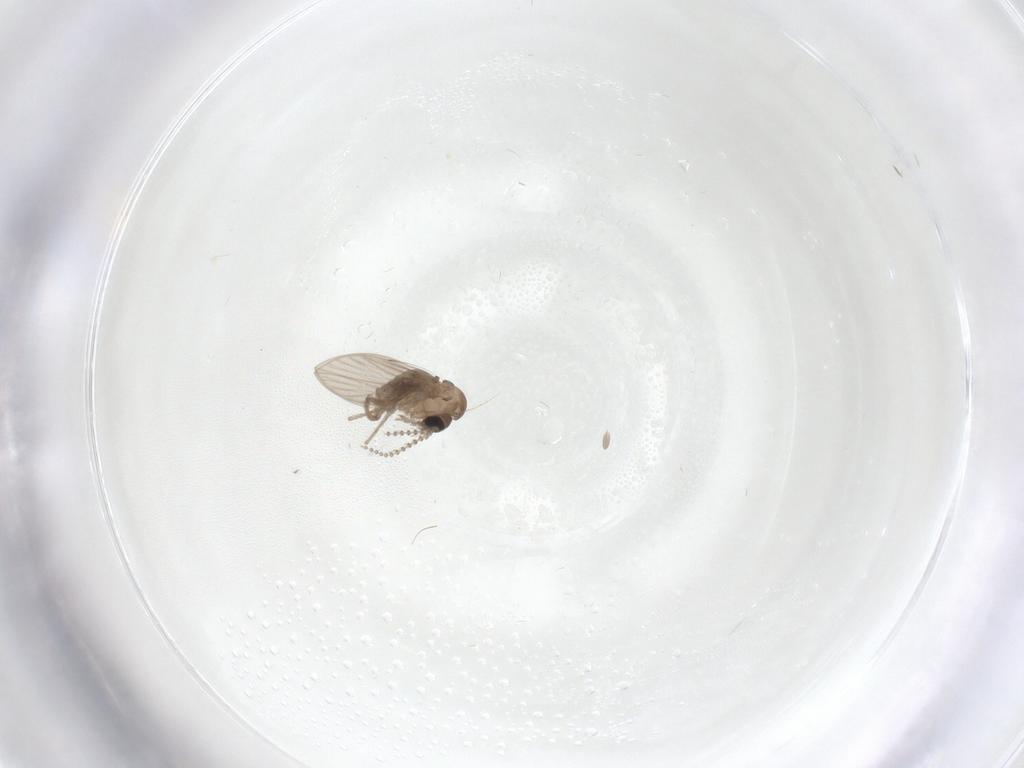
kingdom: Animalia
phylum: Arthropoda
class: Insecta
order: Diptera
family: Psychodidae
